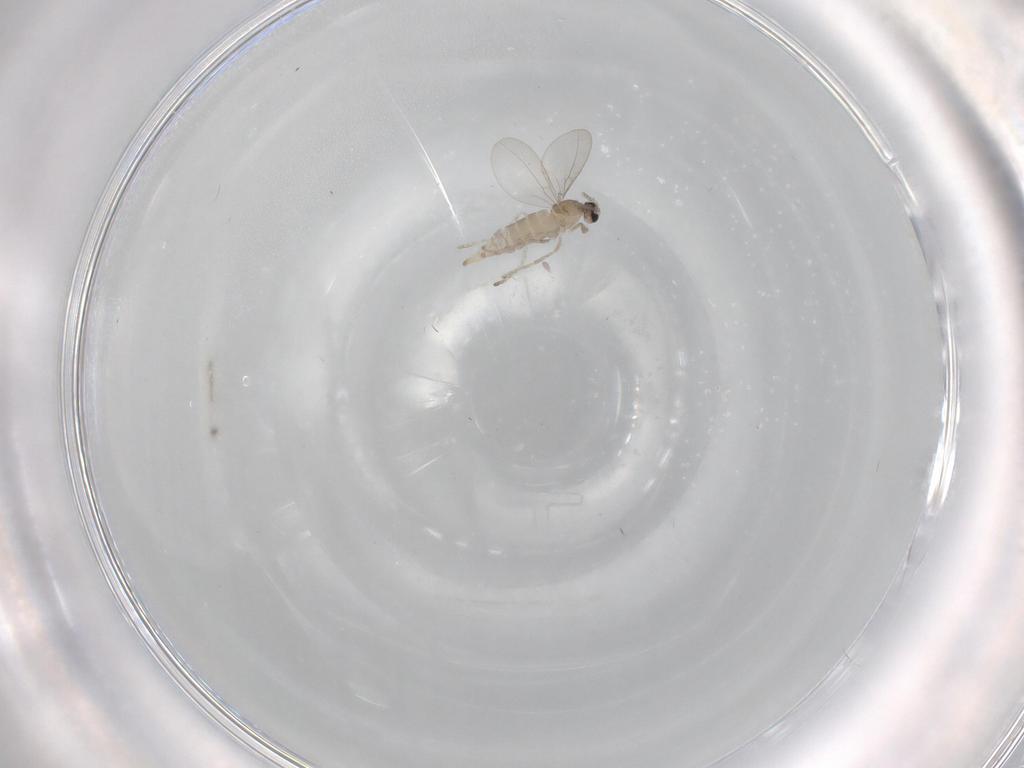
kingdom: Animalia
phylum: Arthropoda
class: Insecta
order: Diptera
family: Cecidomyiidae
